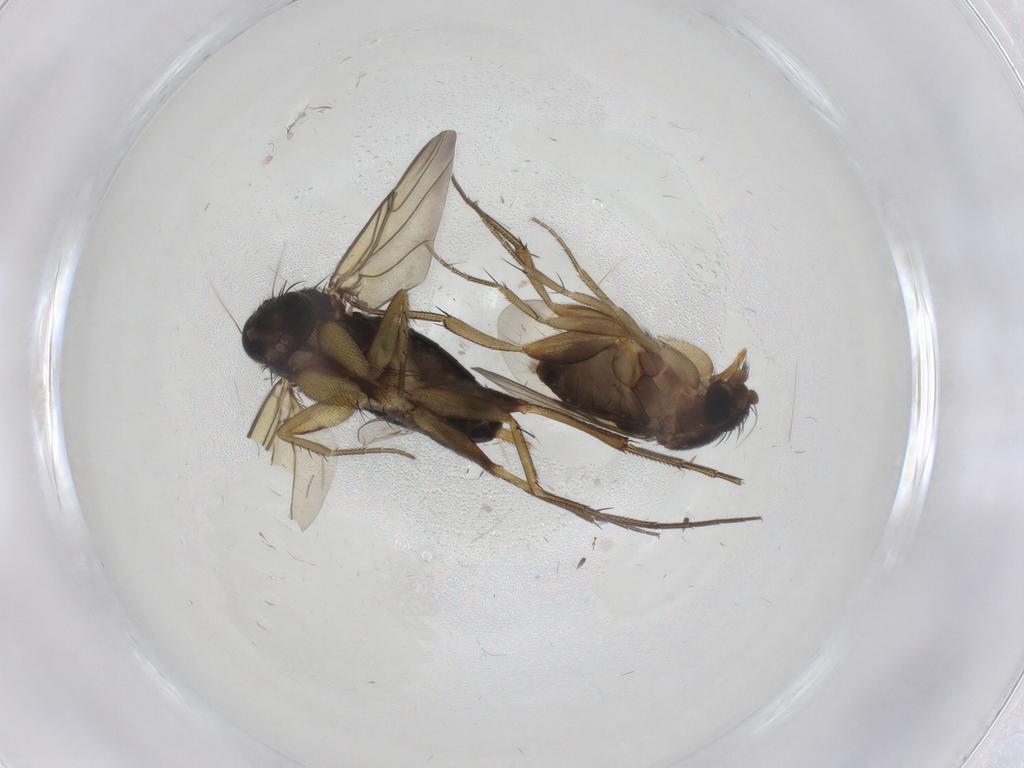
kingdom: Animalia
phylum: Arthropoda
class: Insecta
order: Diptera
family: Phoridae
